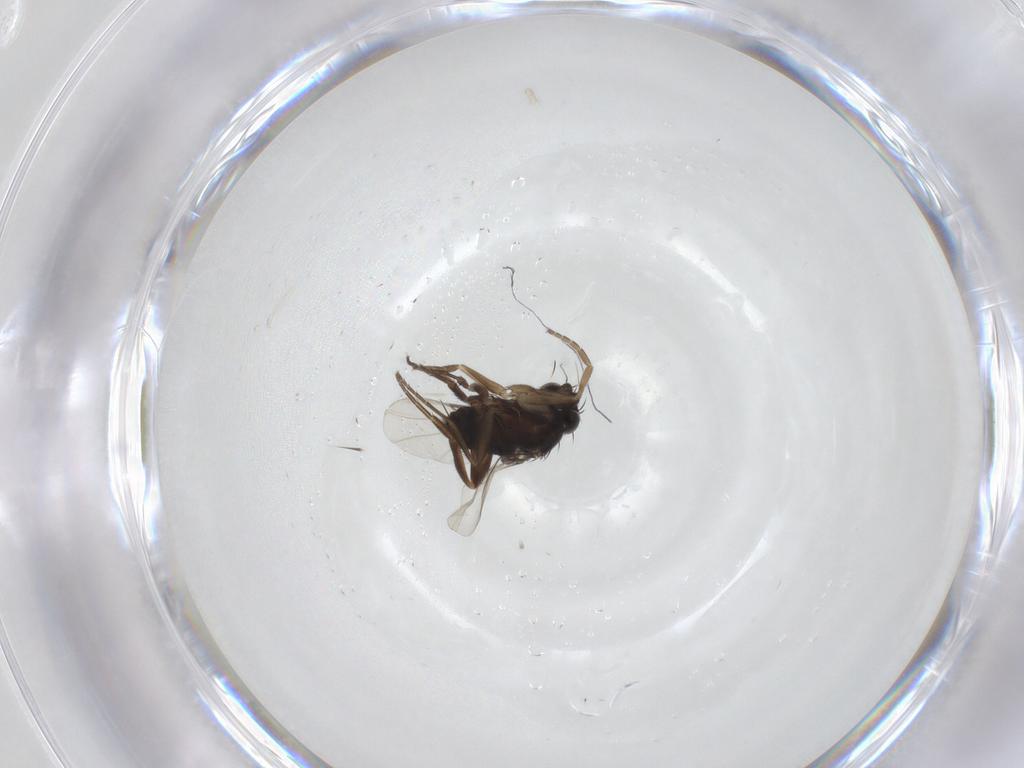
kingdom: Animalia
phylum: Arthropoda
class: Insecta
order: Diptera
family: Phoridae
